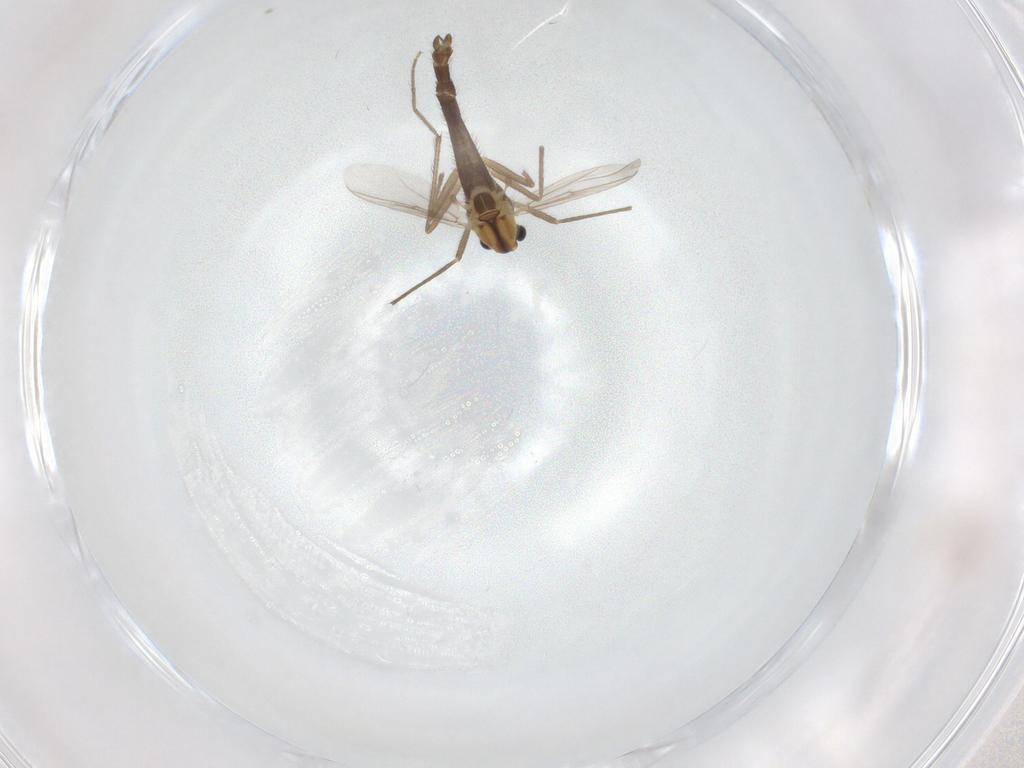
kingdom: Animalia
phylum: Arthropoda
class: Insecta
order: Diptera
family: Chironomidae
